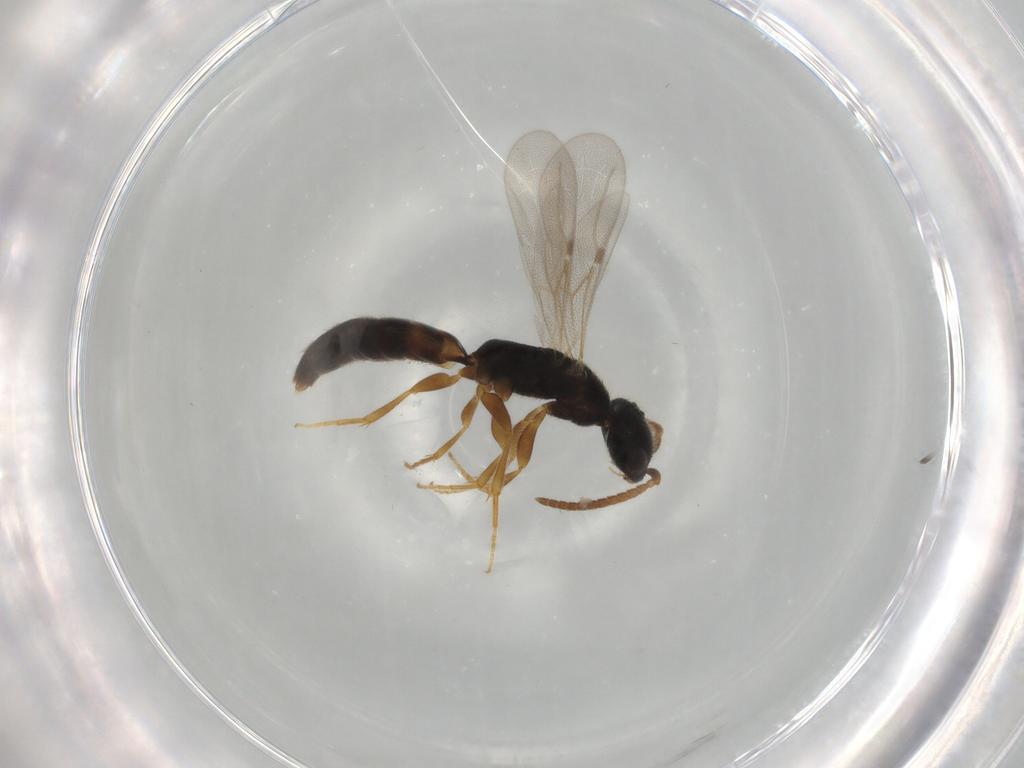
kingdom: Animalia
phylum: Arthropoda
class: Insecta
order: Hymenoptera
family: Bethylidae
